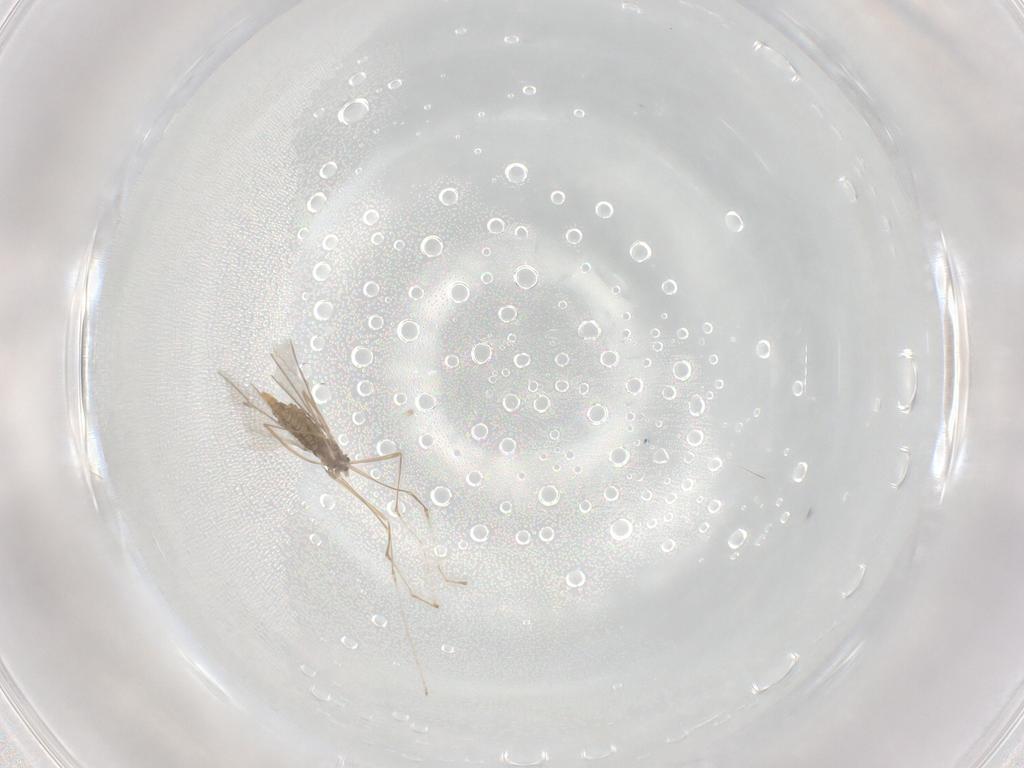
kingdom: Animalia
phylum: Arthropoda
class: Insecta
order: Diptera
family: Cecidomyiidae
